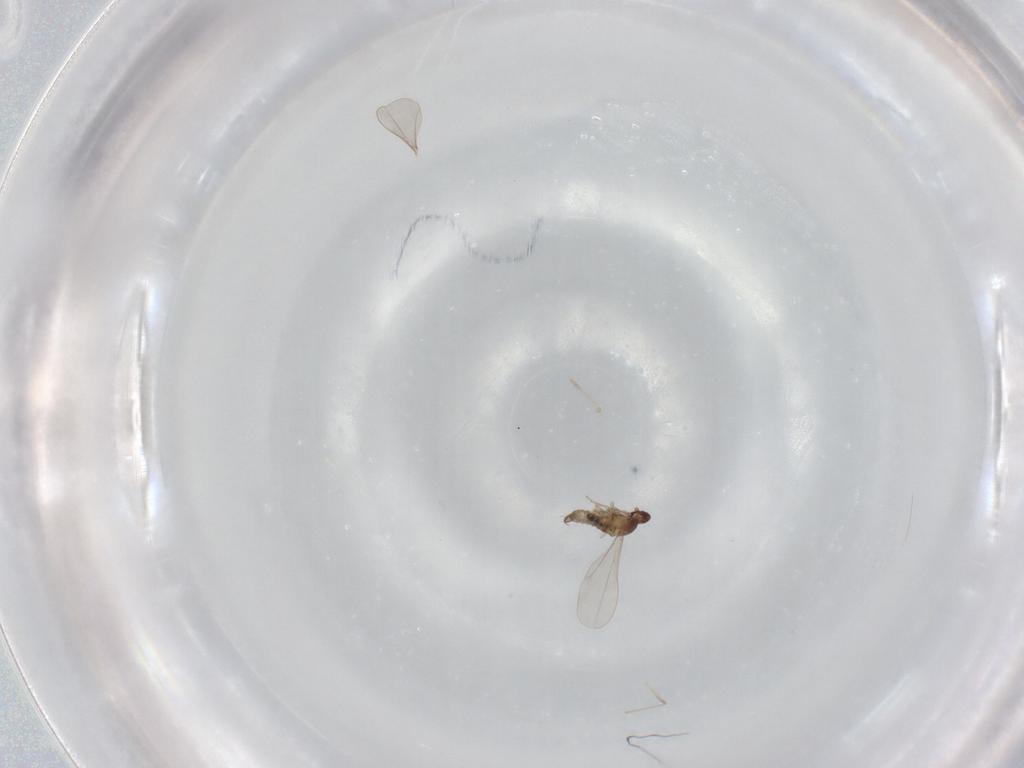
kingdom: Animalia
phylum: Arthropoda
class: Insecta
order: Diptera
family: Cecidomyiidae
